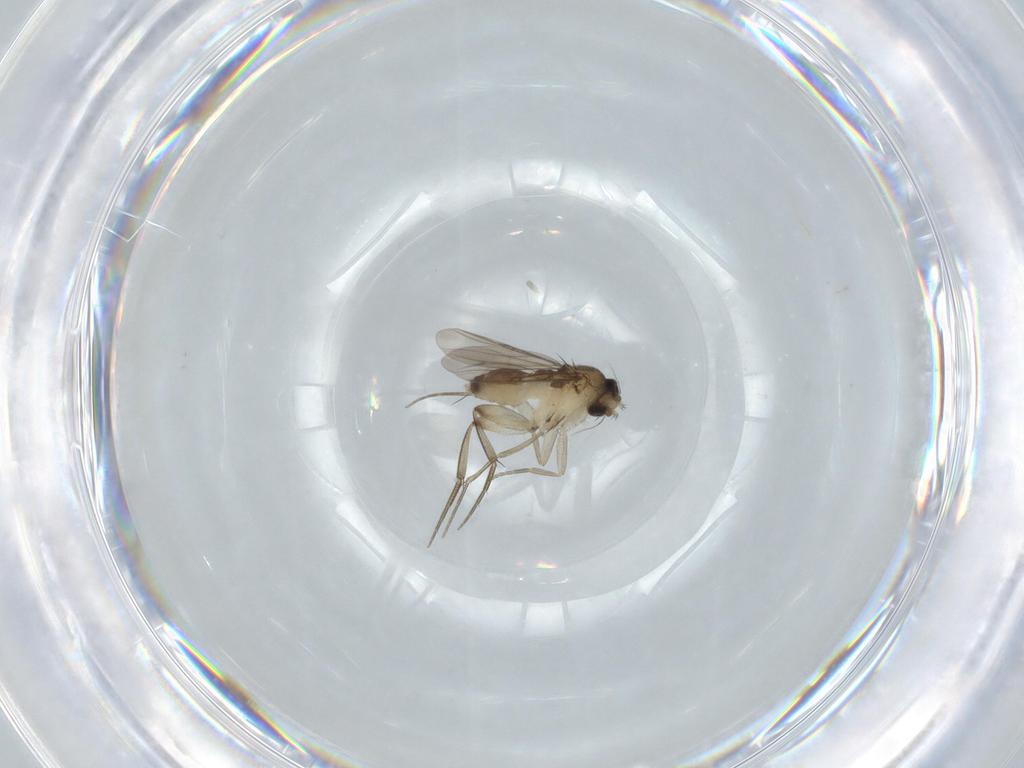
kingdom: Animalia
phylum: Arthropoda
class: Insecta
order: Diptera
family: Phoridae
